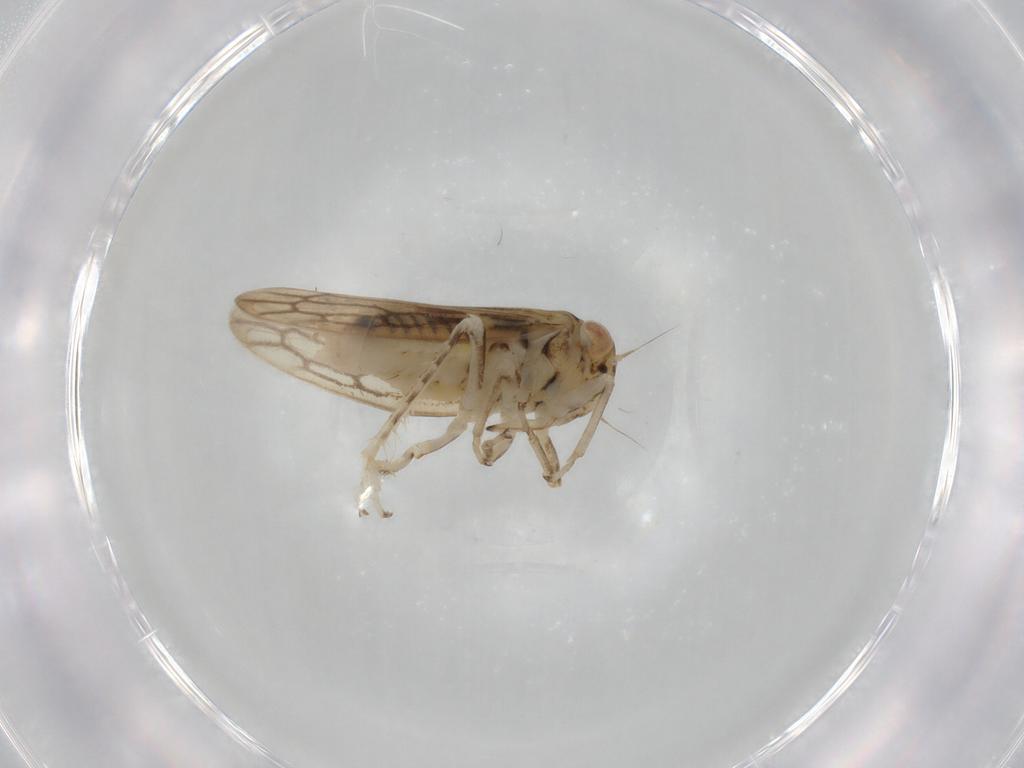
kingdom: Animalia
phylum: Arthropoda
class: Insecta
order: Hemiptera
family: Cicadellidae
